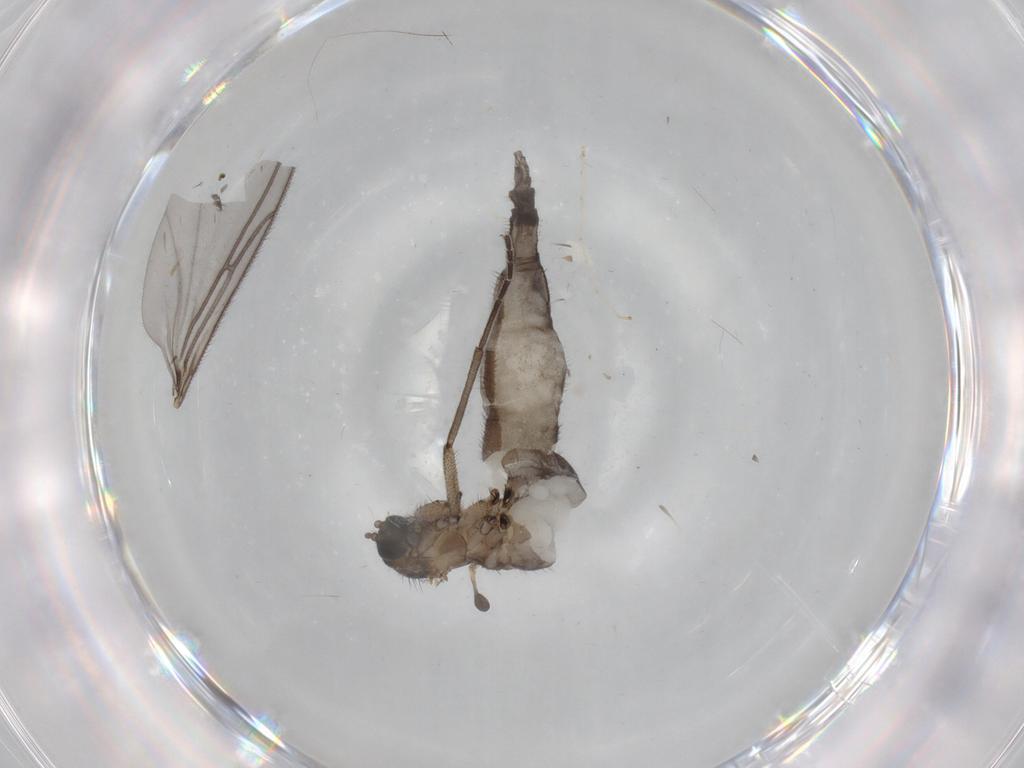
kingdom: Animalia
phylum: Arthropoda
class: Insecta
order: Diptera
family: Sciaridae
